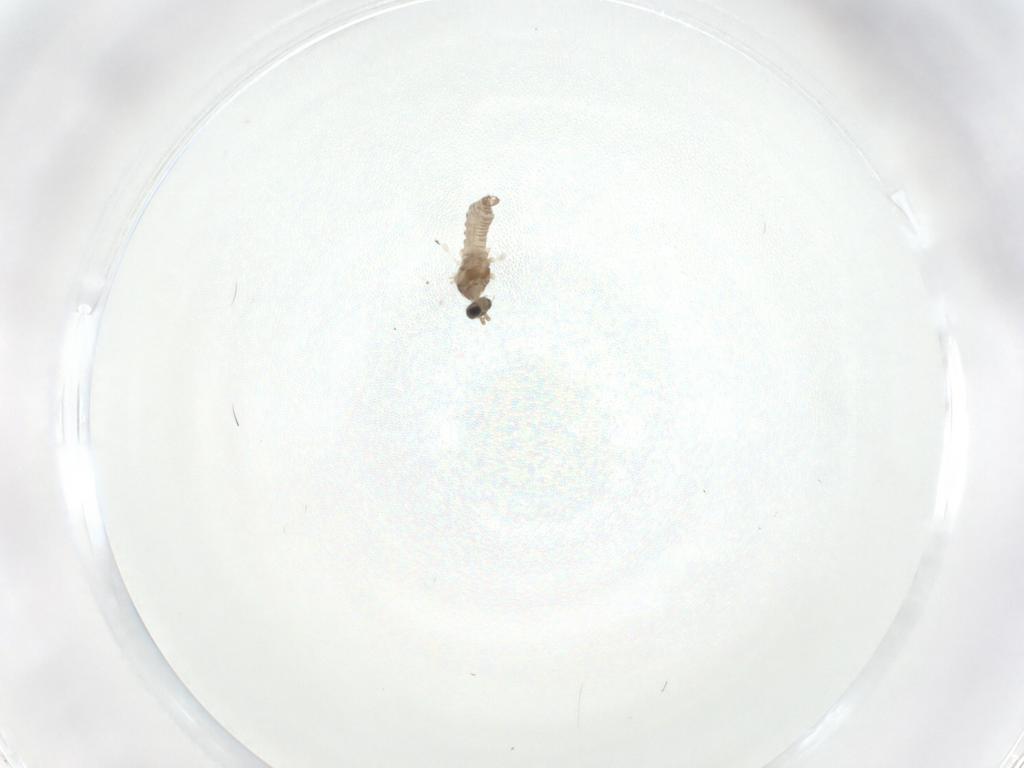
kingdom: Animalia
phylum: Arthropoda
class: Insecta
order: Diptera
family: Cecidomyiidae
